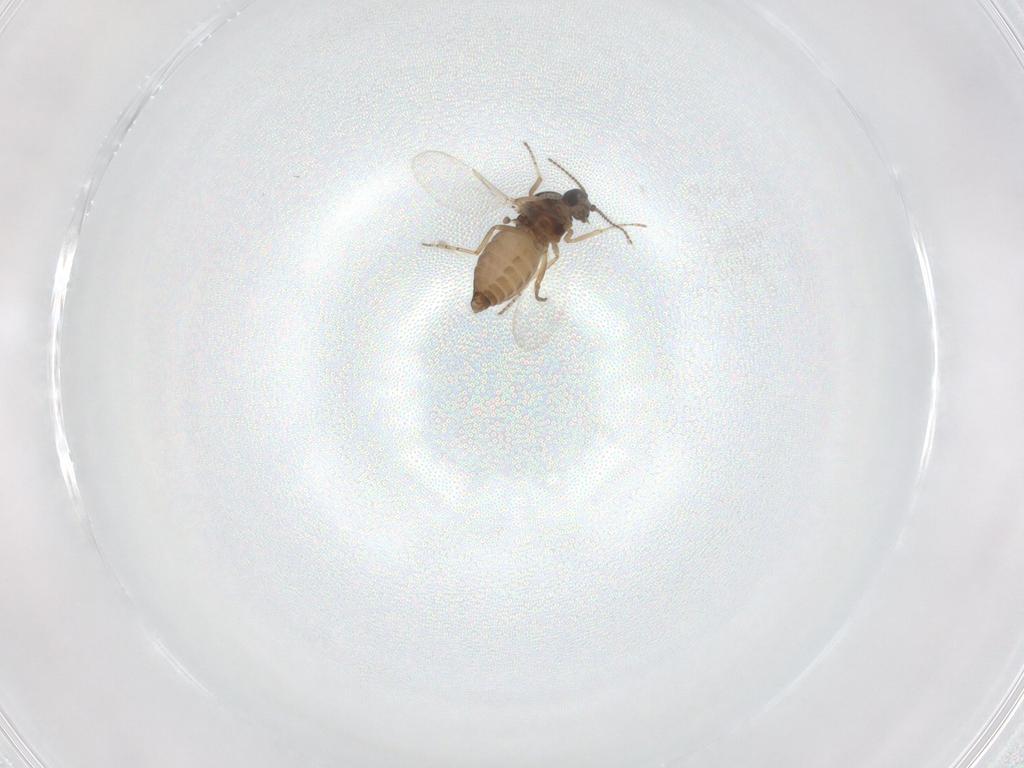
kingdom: Animalia
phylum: Arthropoda
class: Insecta
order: Diptera
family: Ceratopogonidae
